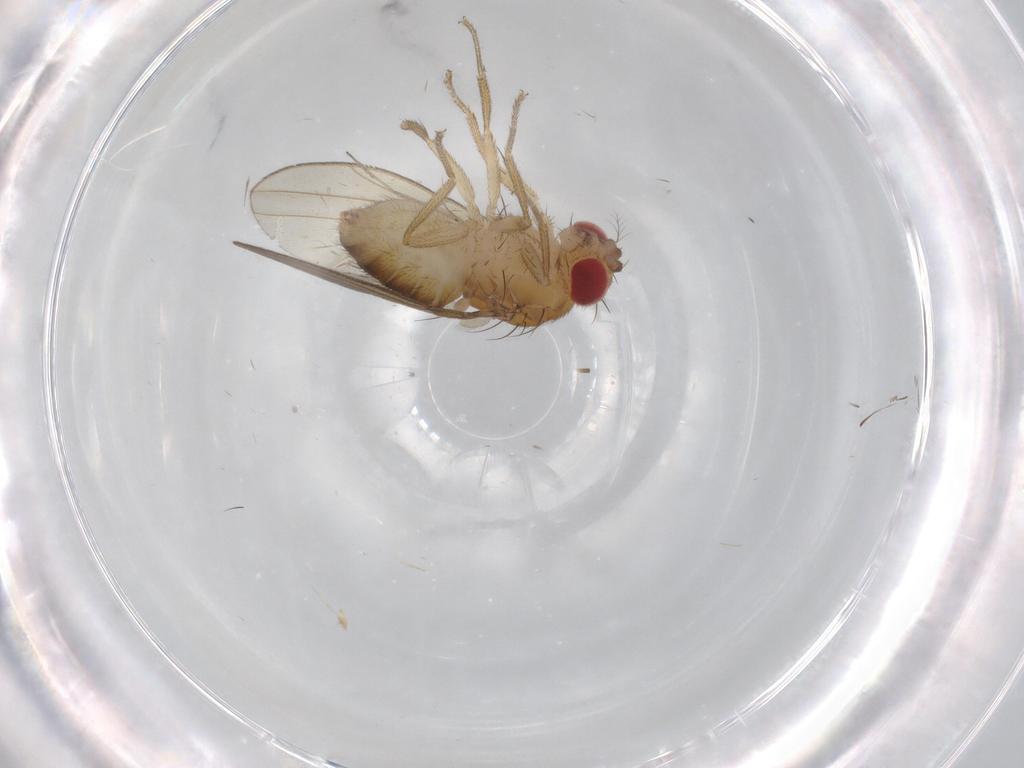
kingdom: Animalia
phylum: Arthropoda
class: Insecta
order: Diptera
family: Drosophilidae
